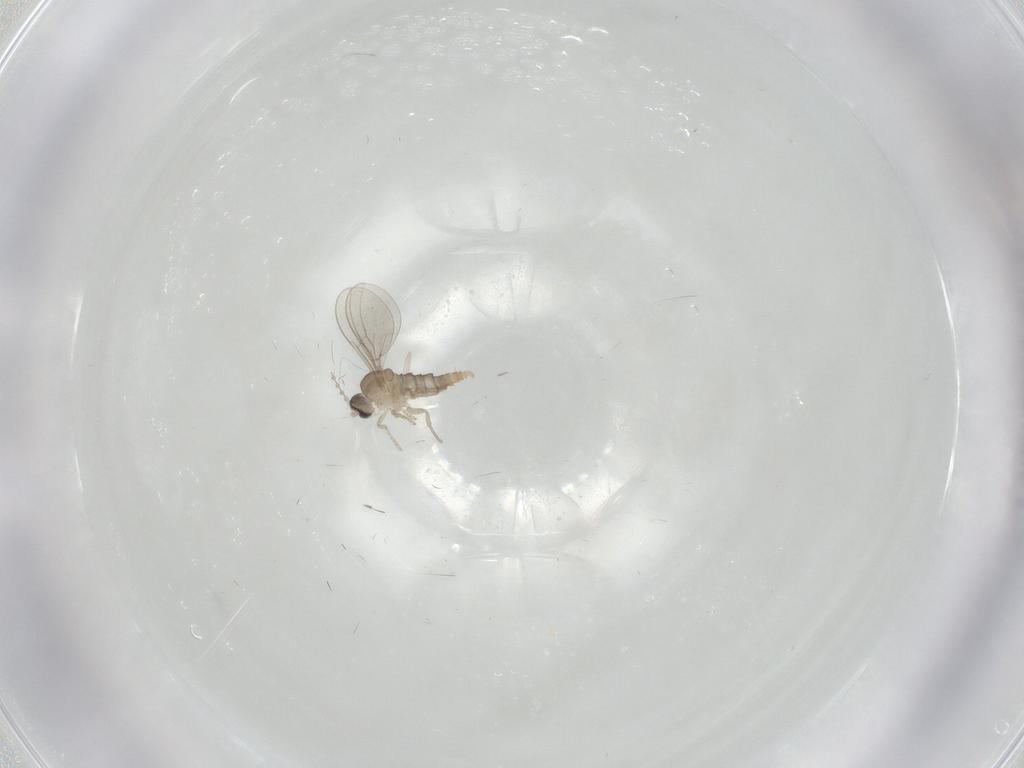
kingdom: Animalia
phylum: Arthropoda
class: Insecta
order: Diptera
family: Cecidomyiidae
